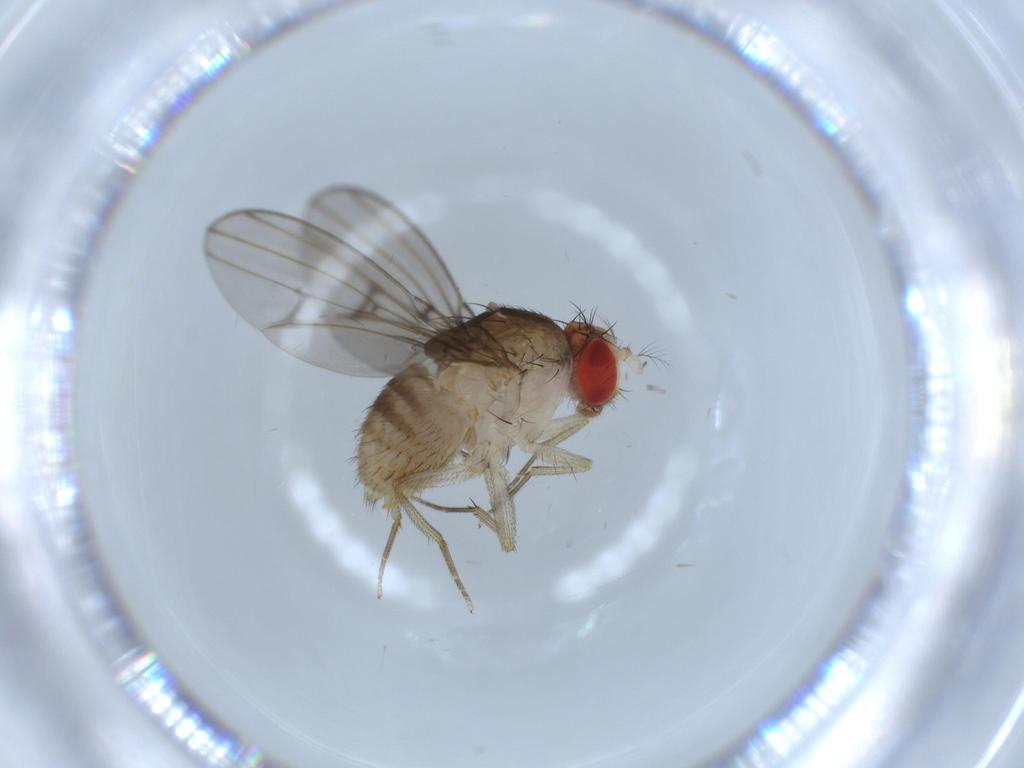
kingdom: Animalia
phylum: Arthropoda
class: Insecta
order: Diptera
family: Drosophilidae
